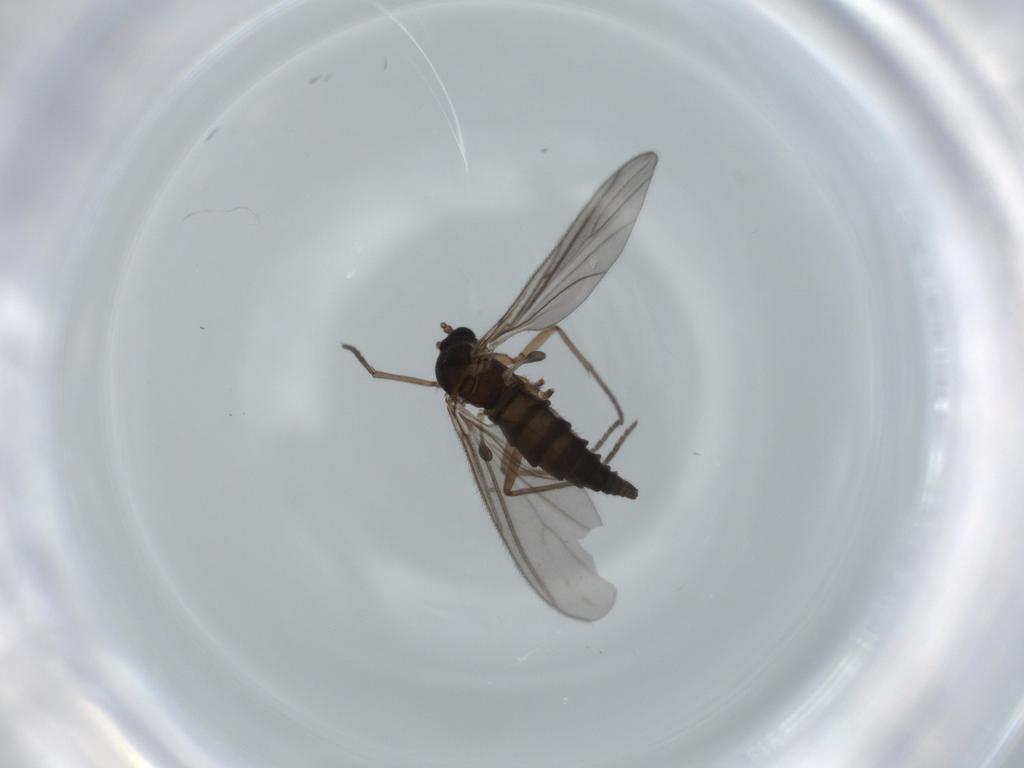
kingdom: Animalia
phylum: Arthropoda
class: Insecta
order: Diptera
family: Sciaridae
